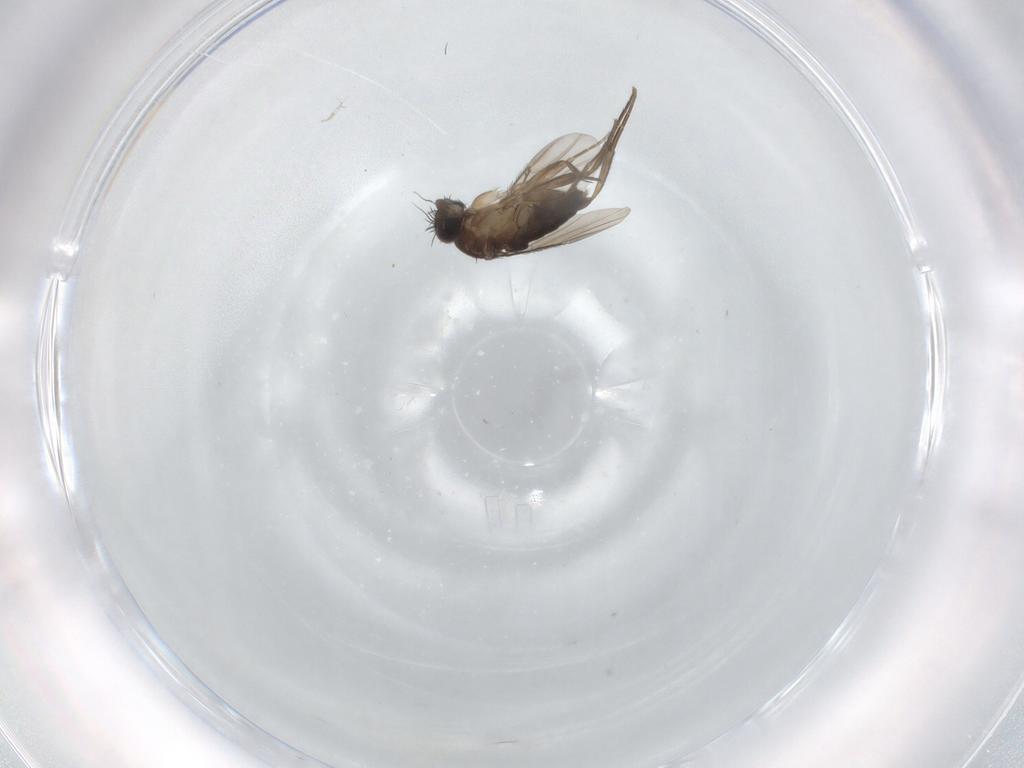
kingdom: Animalia
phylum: Arthropoda
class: Insecta
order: Diptera
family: Phoridae
